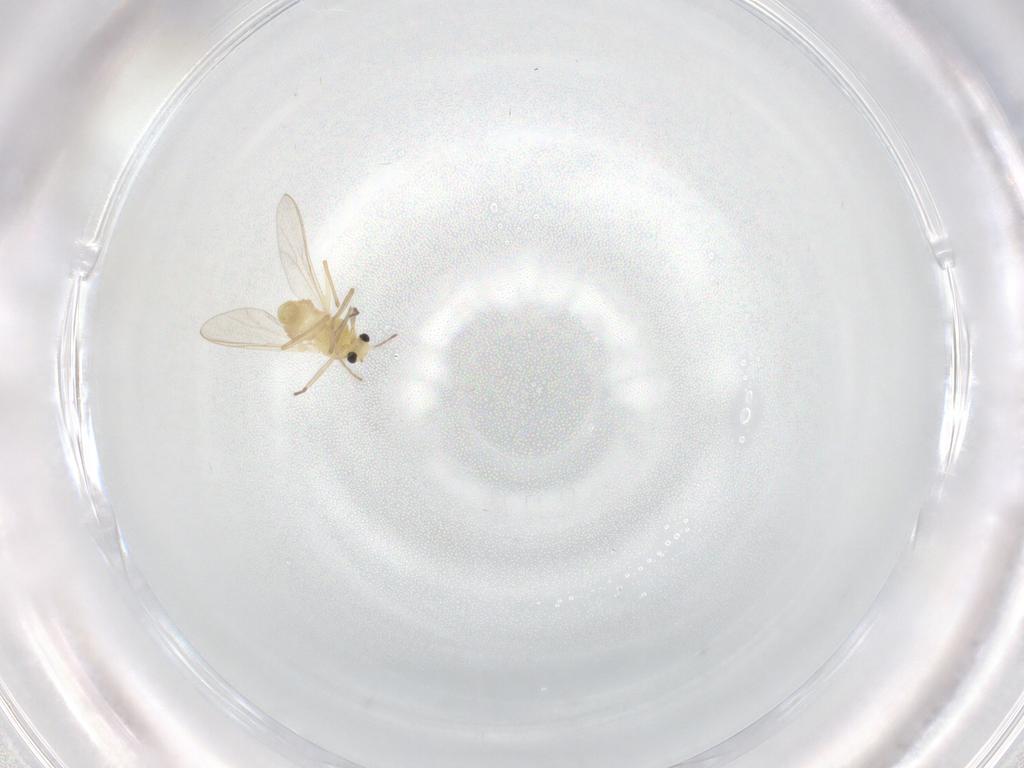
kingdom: Animalia
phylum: Arthropoda
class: Insecta
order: Diptera
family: Chironomidae
